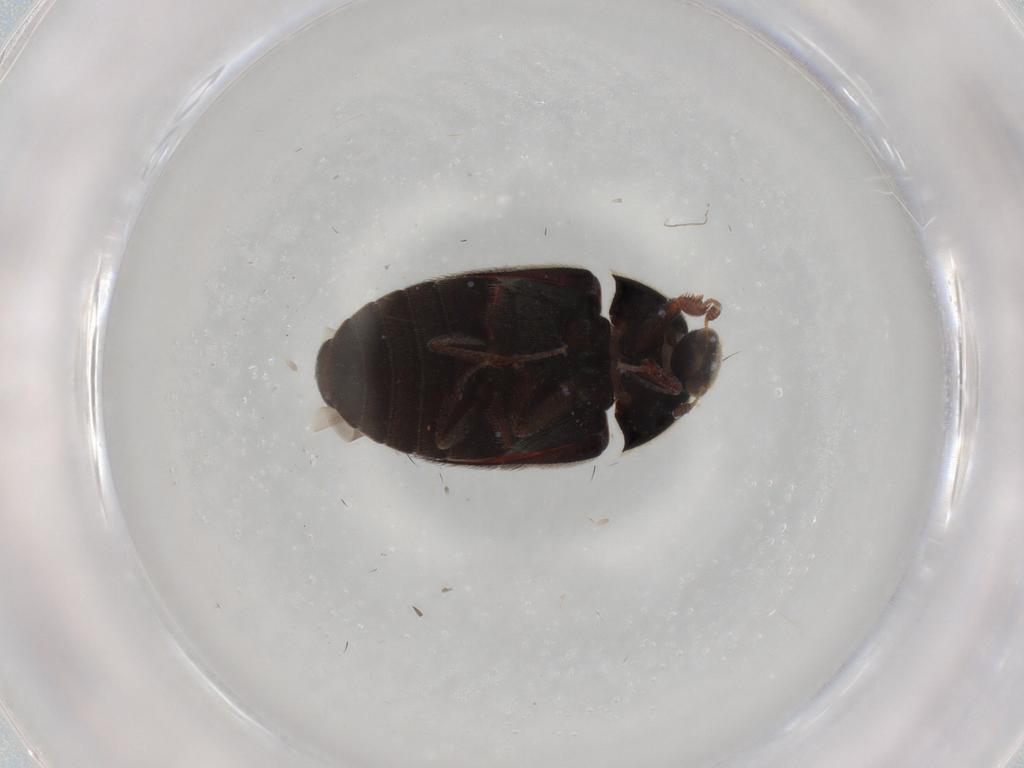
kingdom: Animalia
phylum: Arthropoda
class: Insecta
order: Coleoptera
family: Dermestidae
